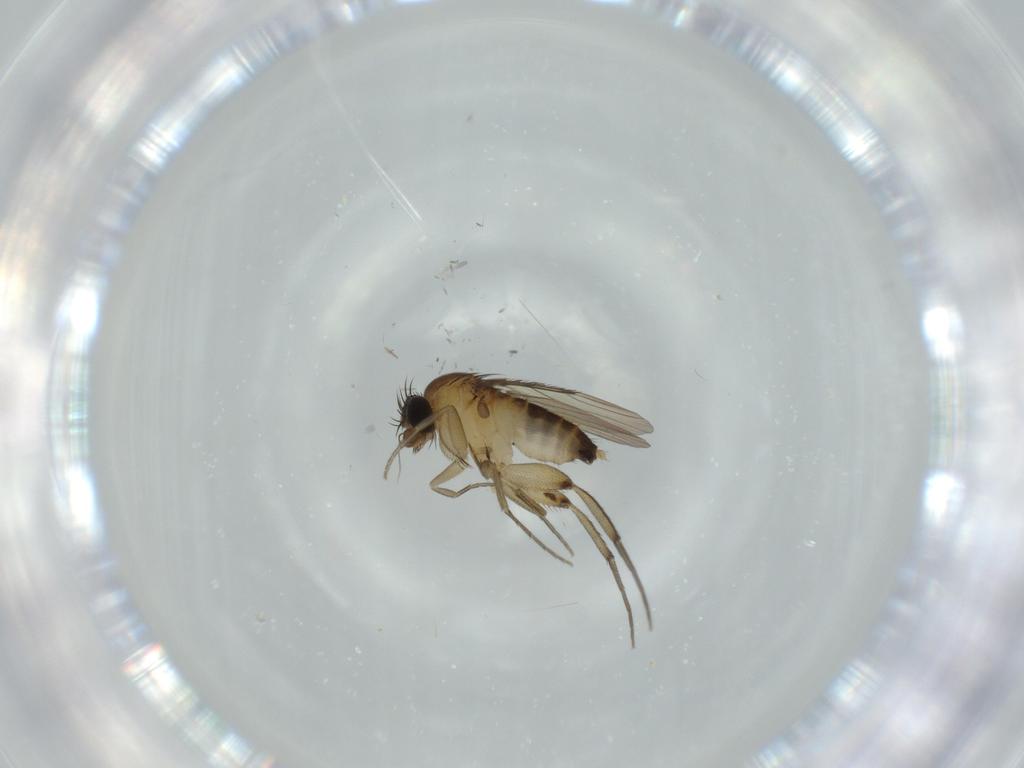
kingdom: Animalia
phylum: Arthropoda
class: Insecta
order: Diptera
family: Phoridae
